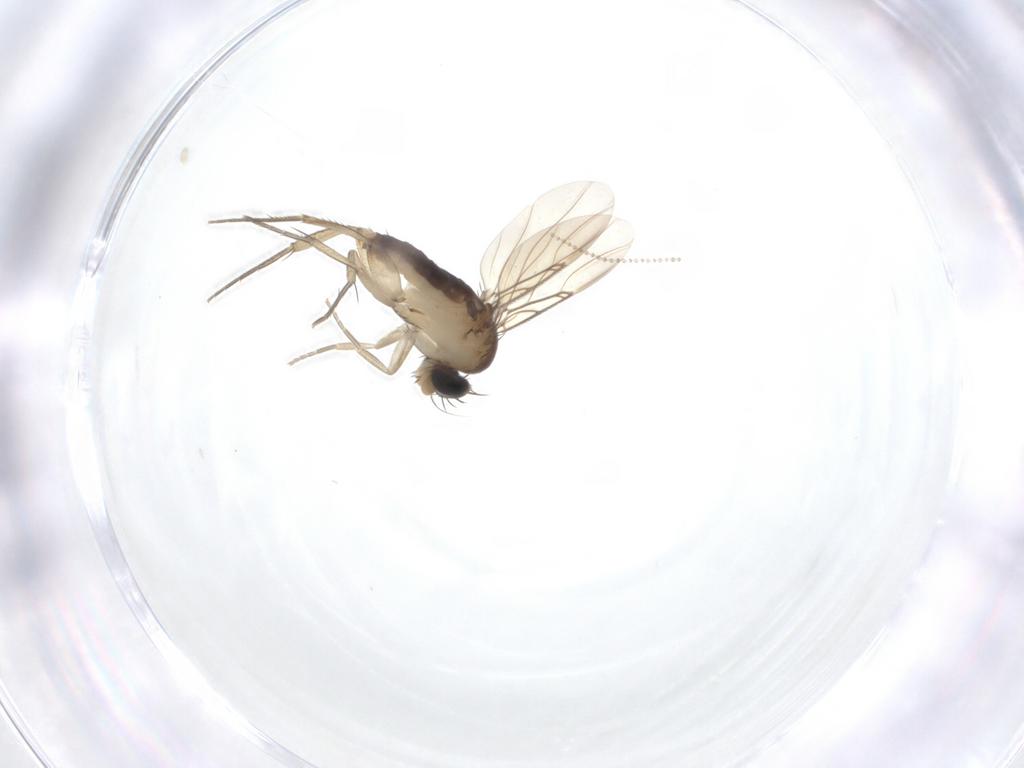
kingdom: Animalia
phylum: Arthropoda
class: Insecta
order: Diptera
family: Phoridae
